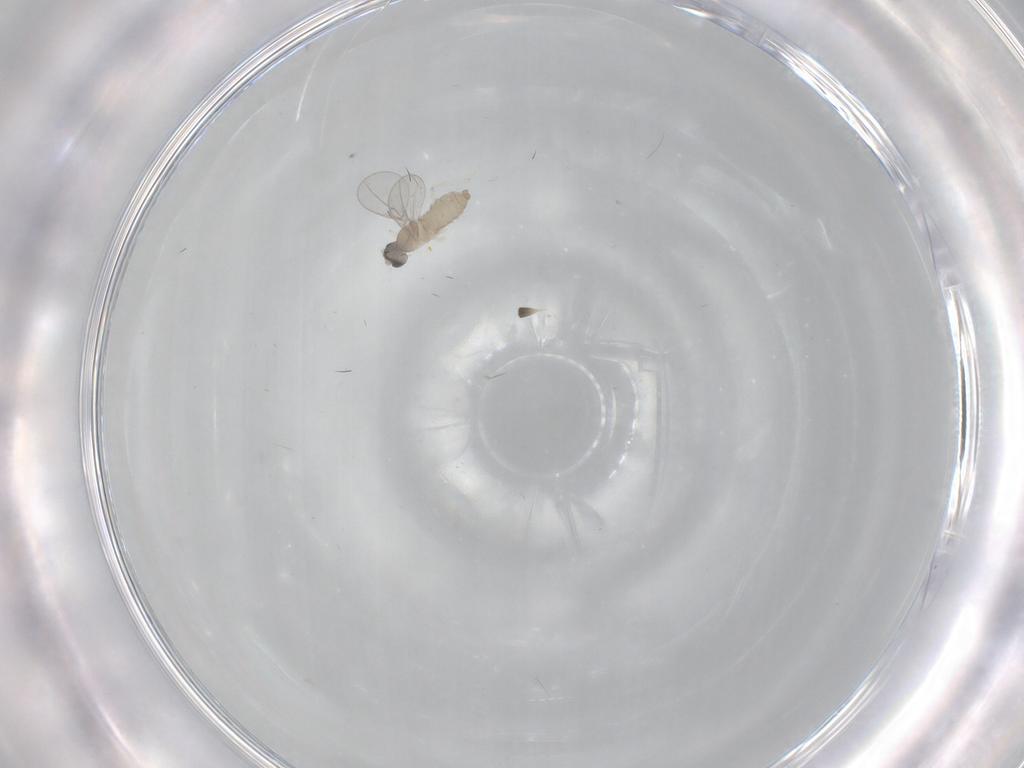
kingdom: Animalia
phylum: Arthropoda
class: Insecta
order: Diptera
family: Cecidomyiidae
